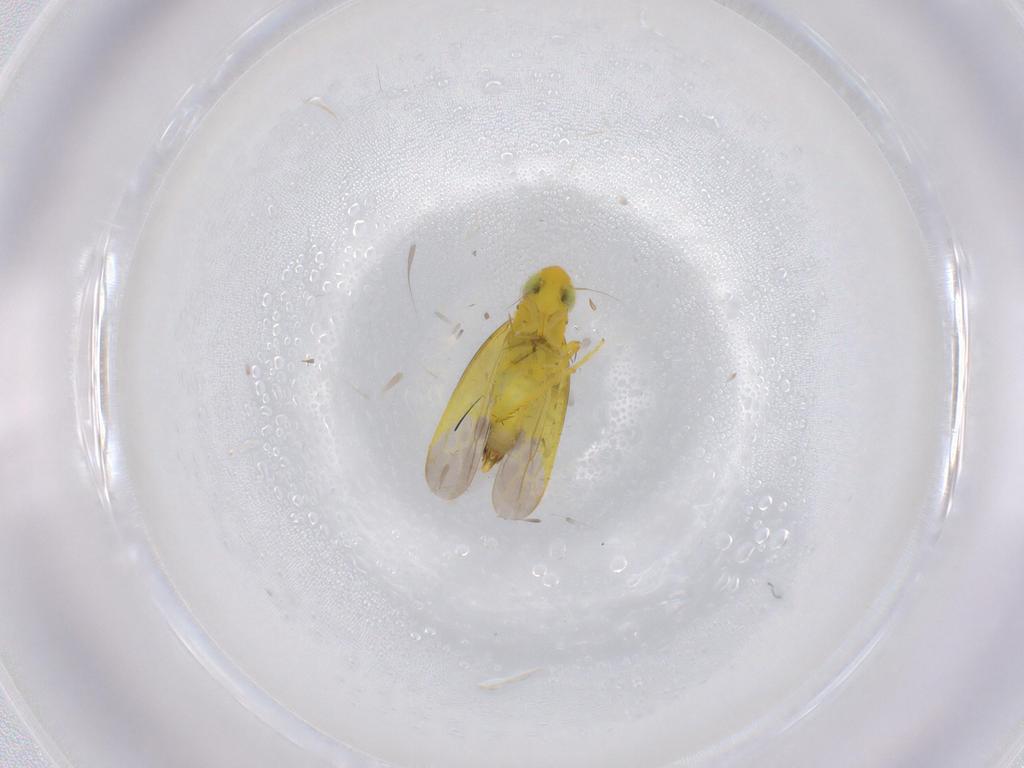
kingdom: Animalia
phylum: Arthropoda
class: Insecta
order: Hemiptera
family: Cicadellidae
